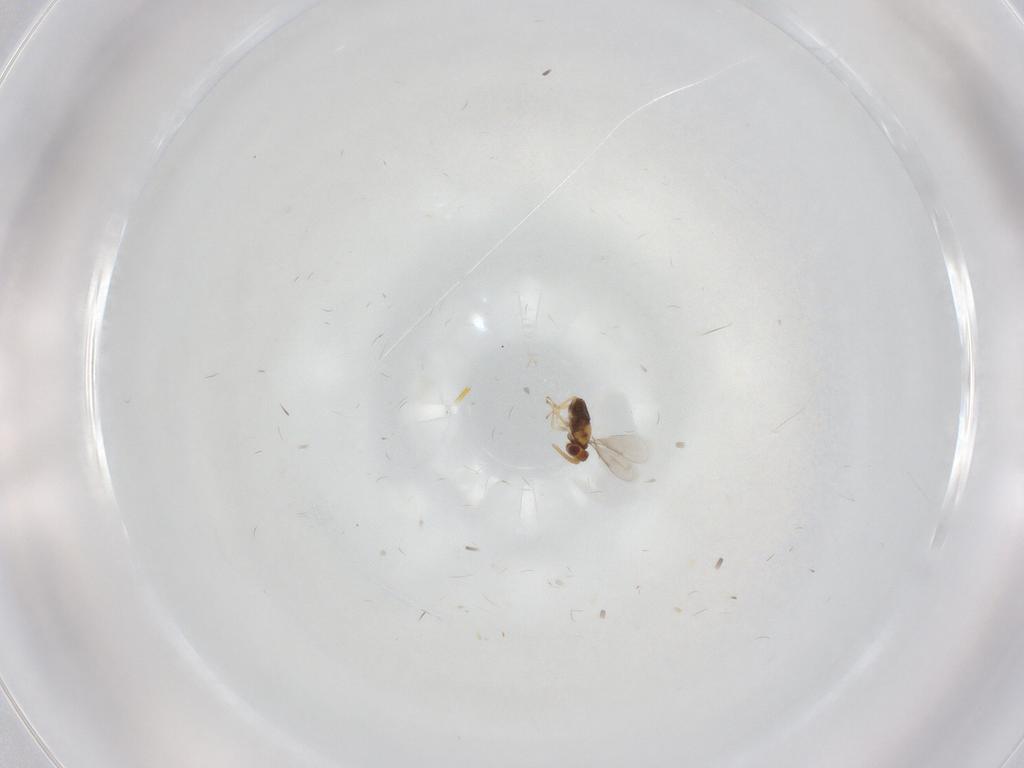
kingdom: Animalia
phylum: Arthropoda
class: Insecta
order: Hymenoptera
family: Aphelinidae
